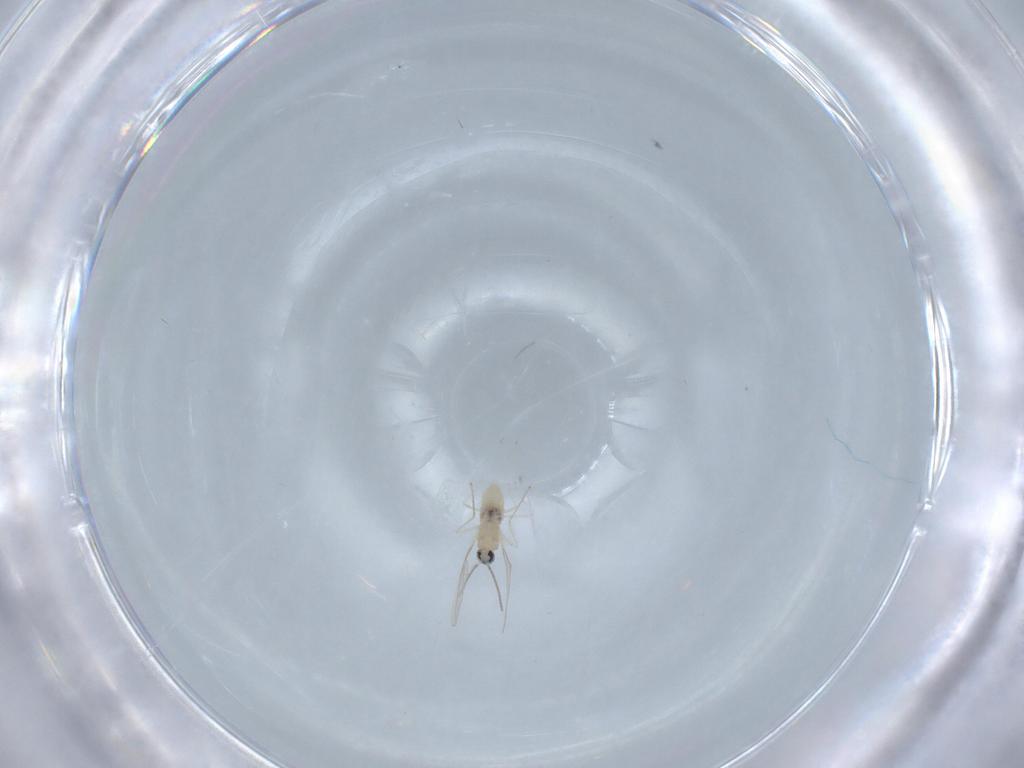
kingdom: Animalia
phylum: Arthropoda
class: Insecta
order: Diptera
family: Cecidomyiidae
